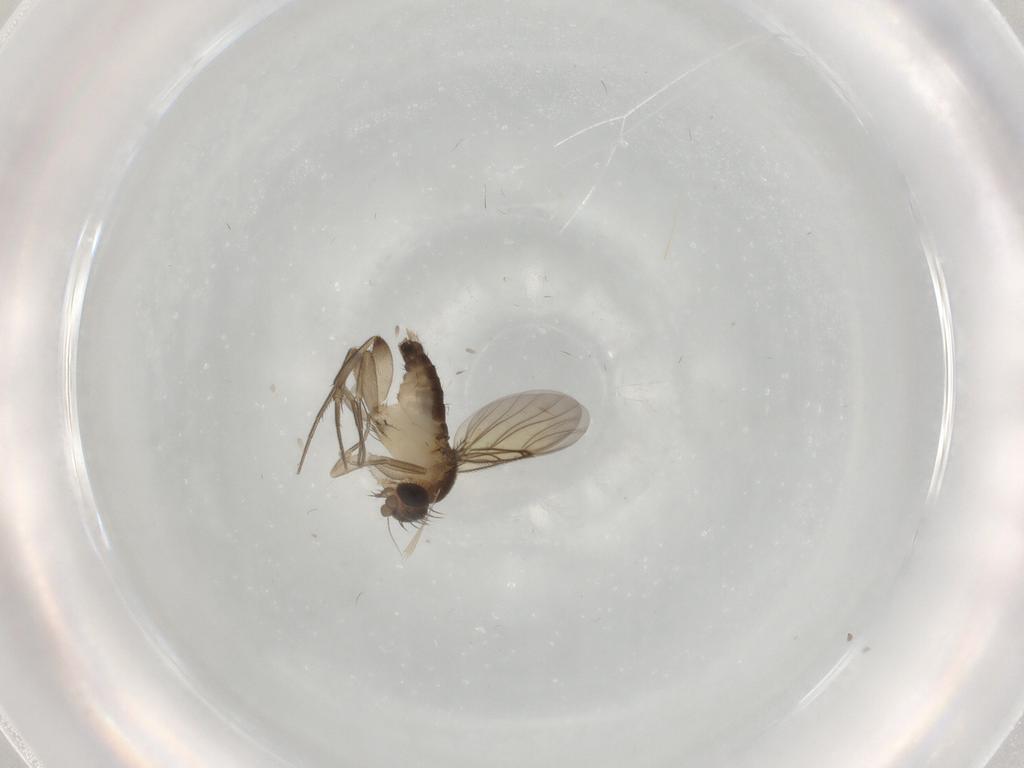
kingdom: Animalia
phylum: Arthropoda
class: Insecta
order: Diptera
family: Phoridae
